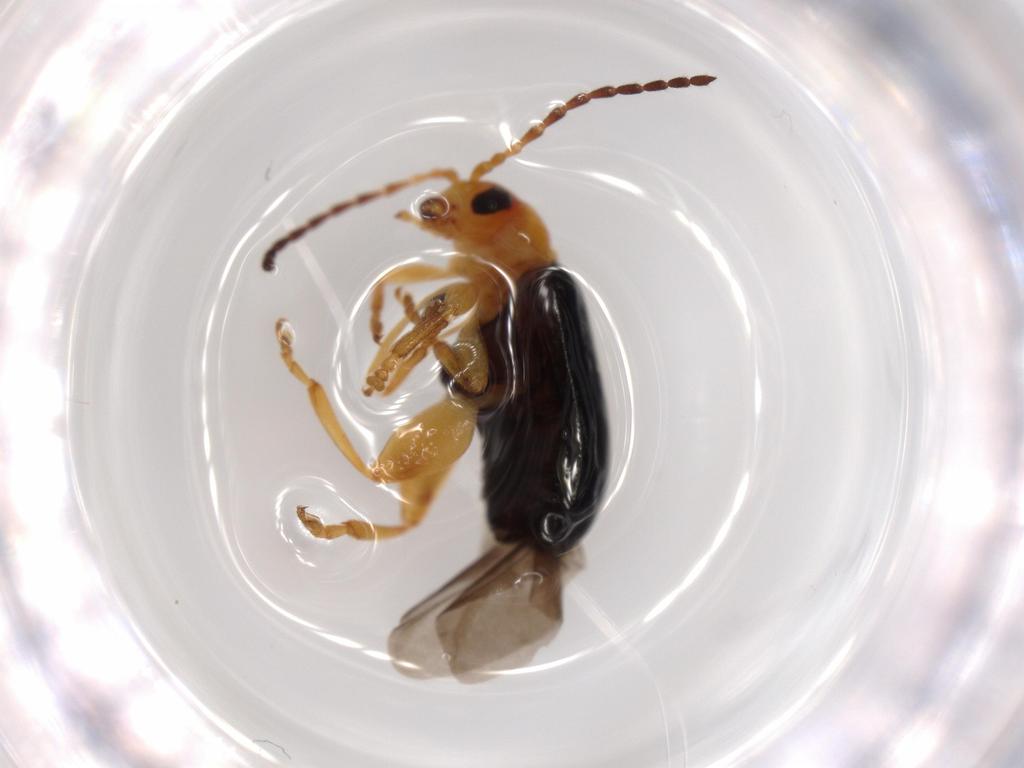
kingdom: Animalia
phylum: Arthropoda
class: Insecta
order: Coleoptera
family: Chrysomelidae
